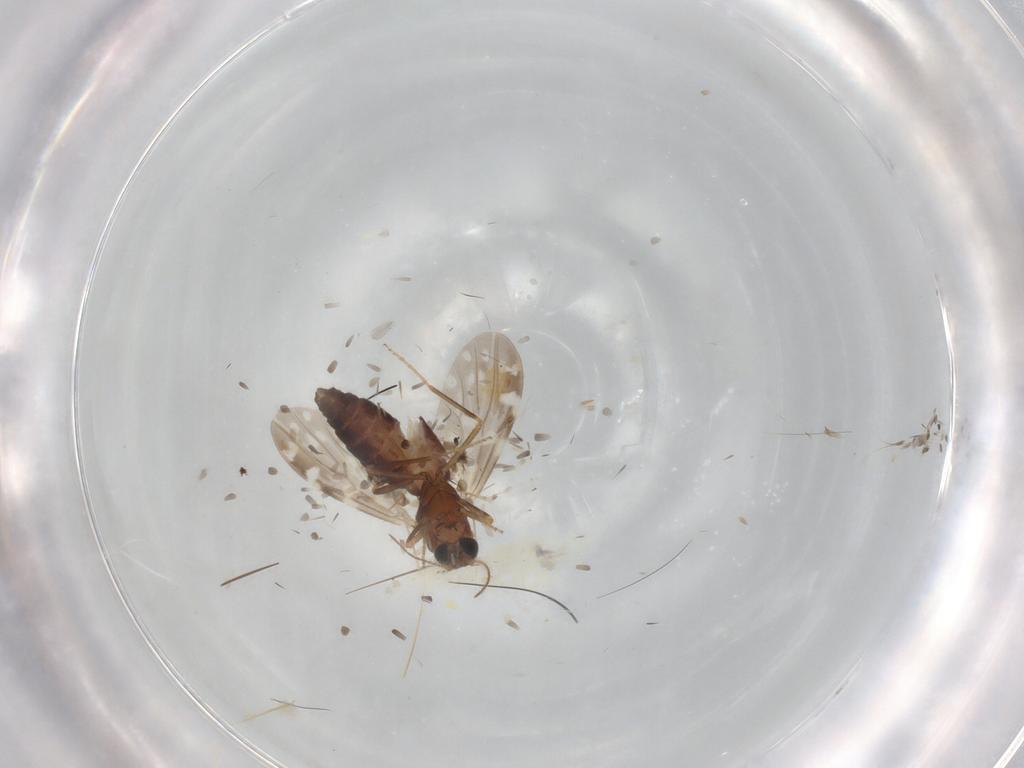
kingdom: Animalia
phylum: Arthropoda
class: Insecta
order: Diptera
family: Ceratopogonidae
